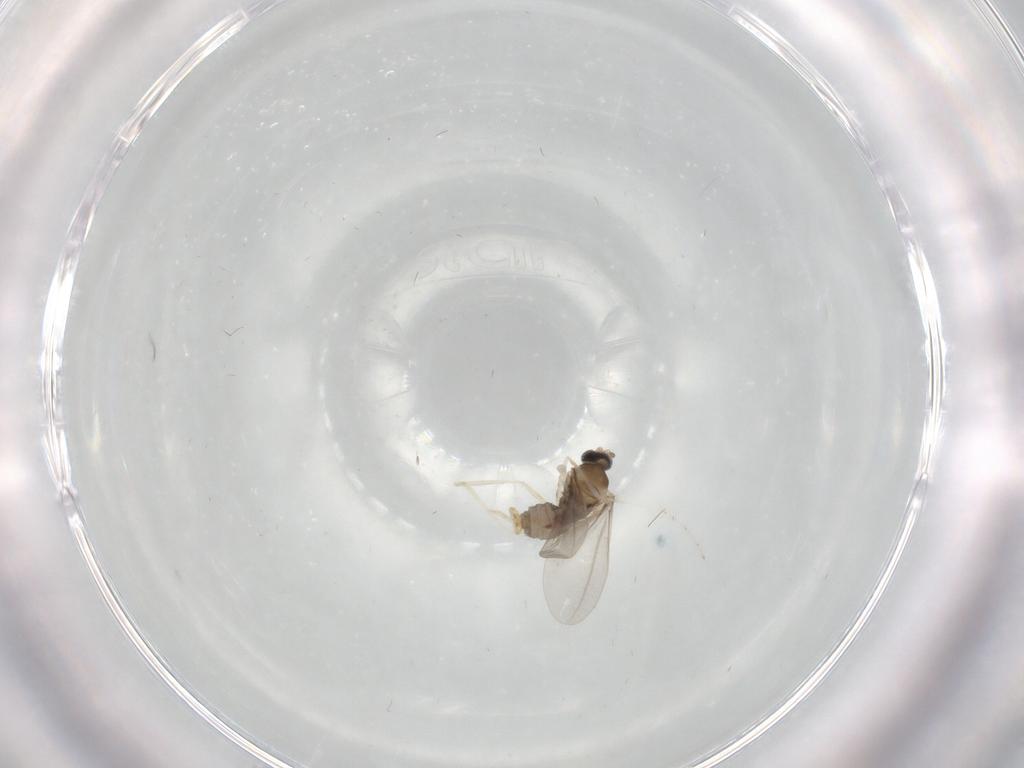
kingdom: Animalia
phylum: Arthropoda
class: Insecta
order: Diptera
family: Cecidomyiidae
